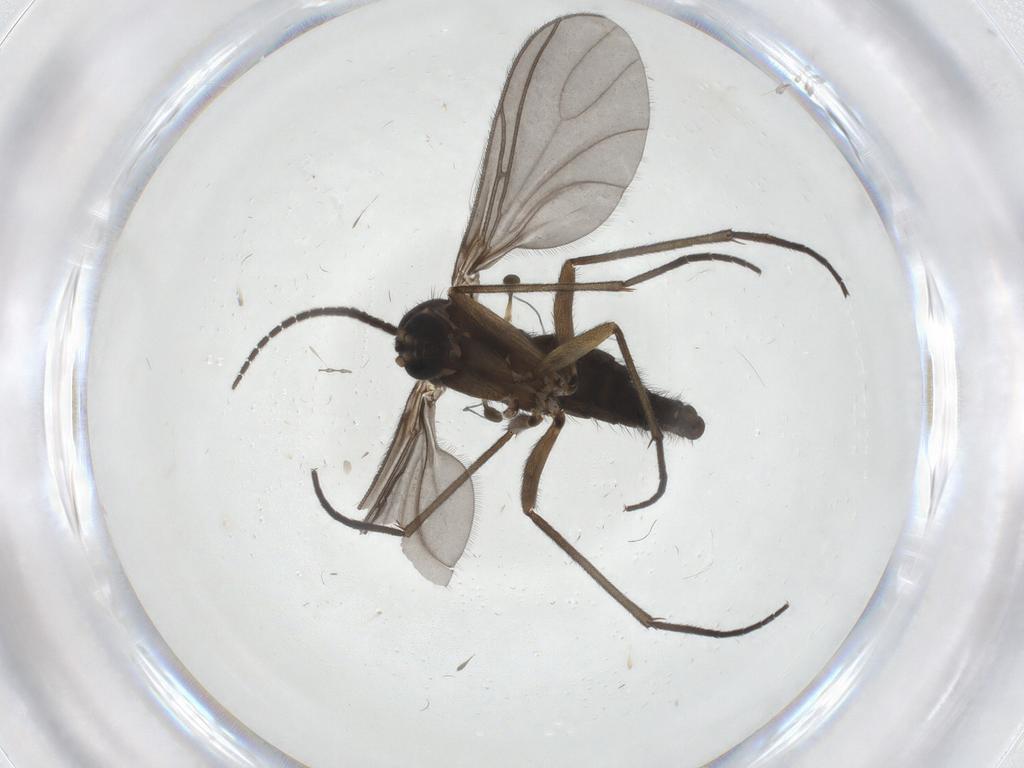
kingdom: Animalia
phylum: Arthropoda
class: Insecta
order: Diptera
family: Sciaridae
